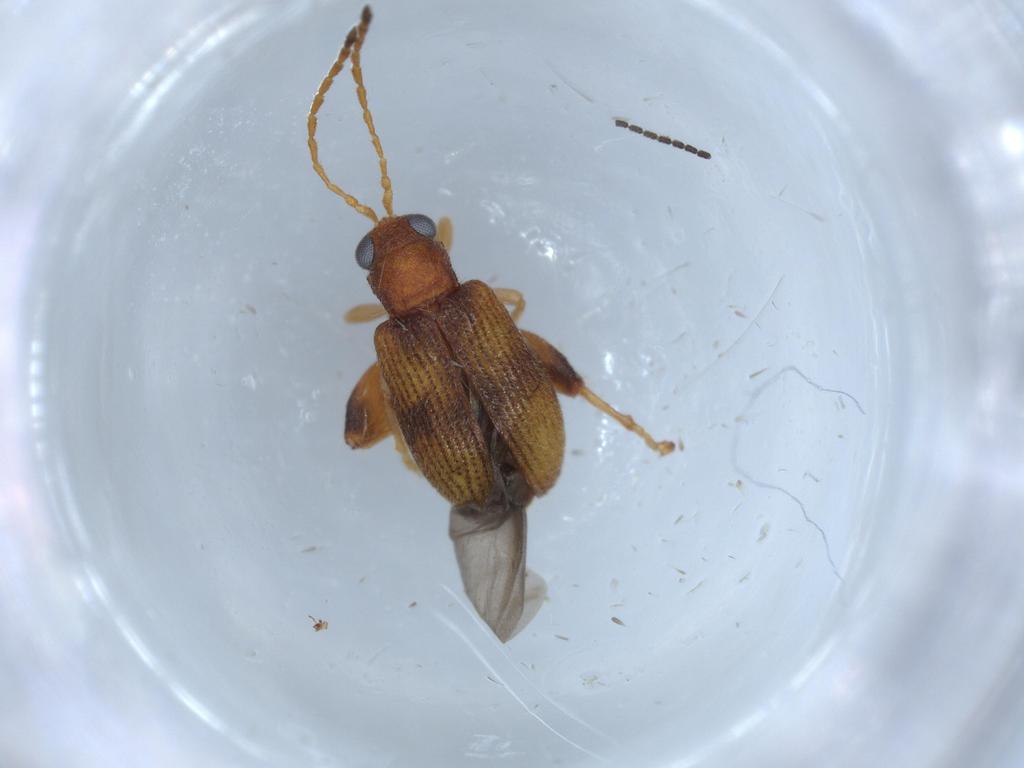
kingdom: Animalia
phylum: Arthropoda
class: Insecta
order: Coleoptera
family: Chrysomelidae
